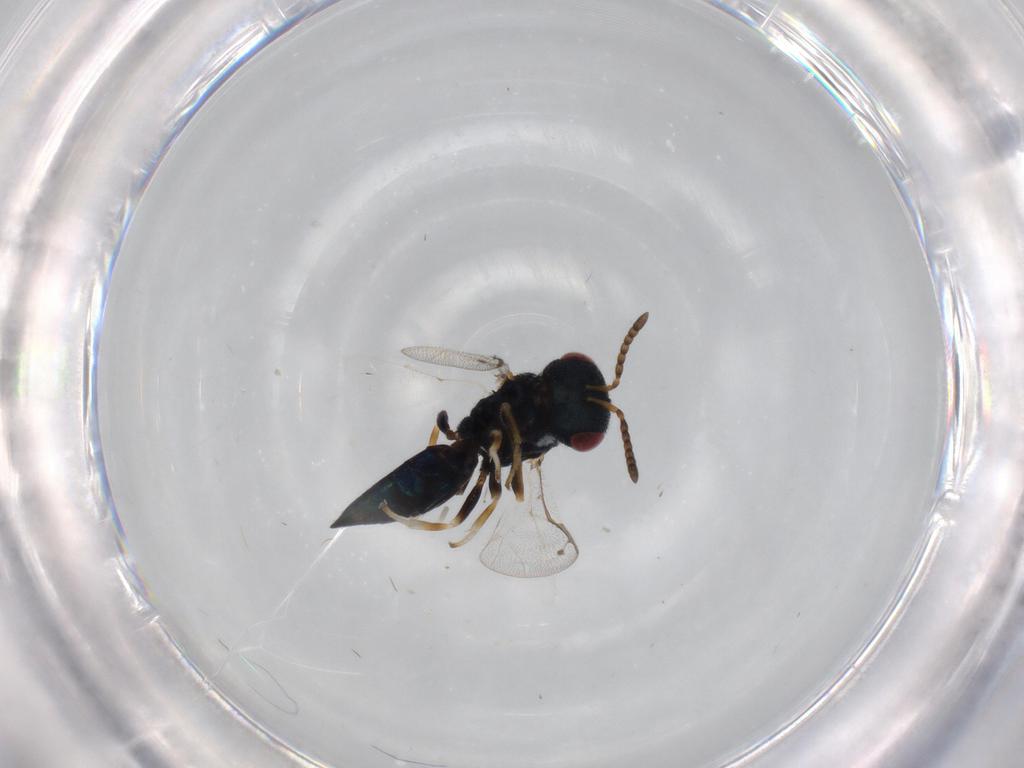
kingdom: Animalia
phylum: Arthropoda
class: Insecta
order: Hymenoptera
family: Pteromalidae
